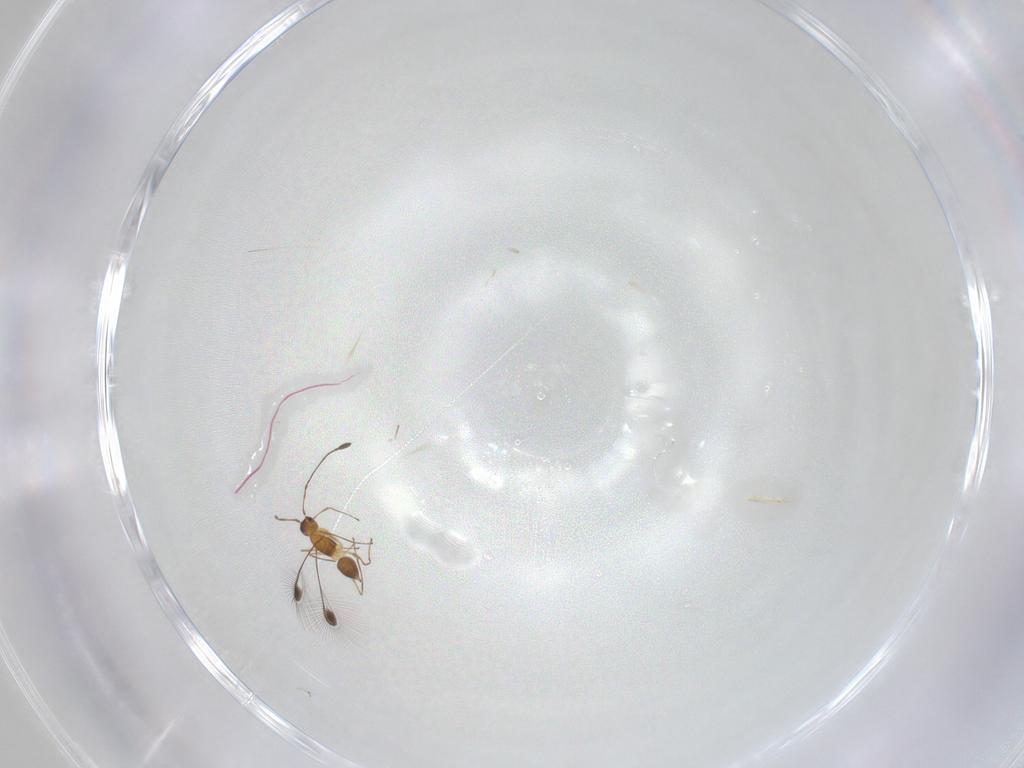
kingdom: Animalia
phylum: Arthropoda
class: Insecta
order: Hymenoptera
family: Mymaridae
